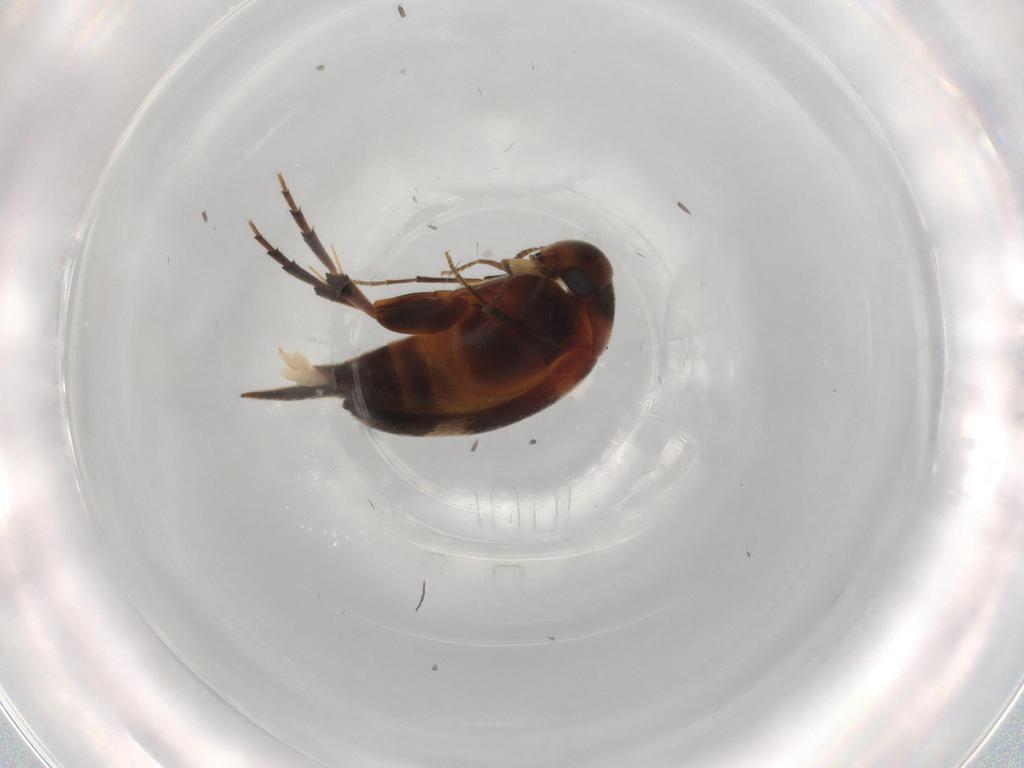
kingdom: Animalia
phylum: Arthropoda
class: Insecta
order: Coleoptera
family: Mordellidae
